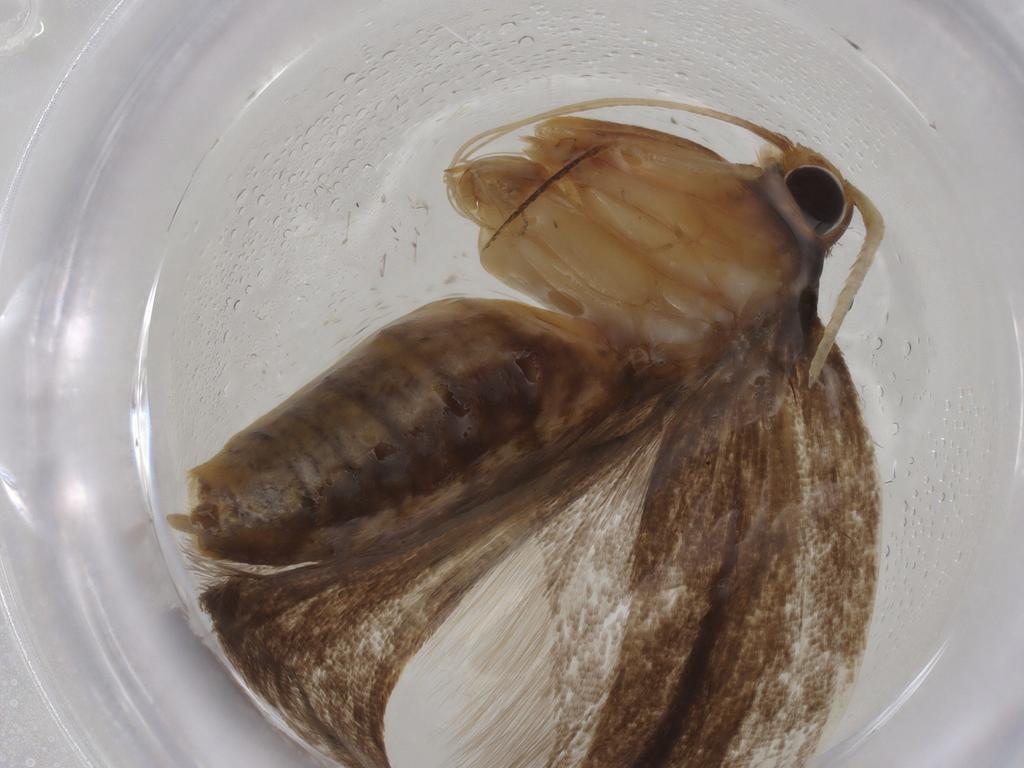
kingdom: Animalia
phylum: Arthropoda
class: Insecta
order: Lepidoptera
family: Lecithoceridae
